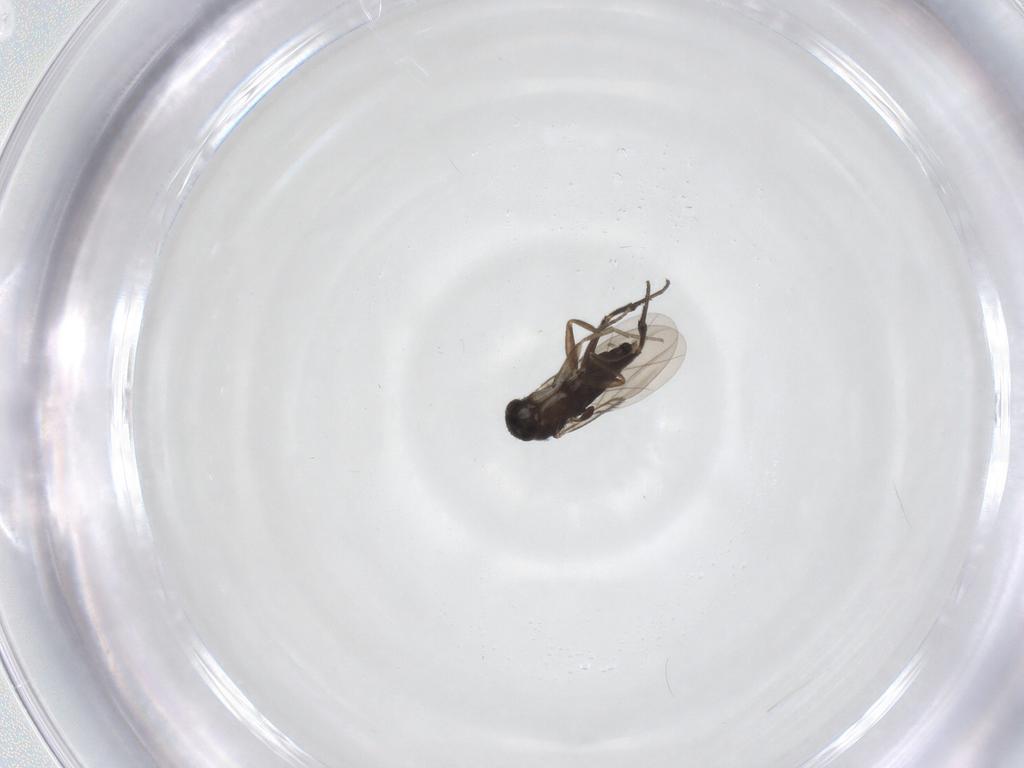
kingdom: Animalia
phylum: Arthropoda
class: Insecta
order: Diptera
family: Phoridae
